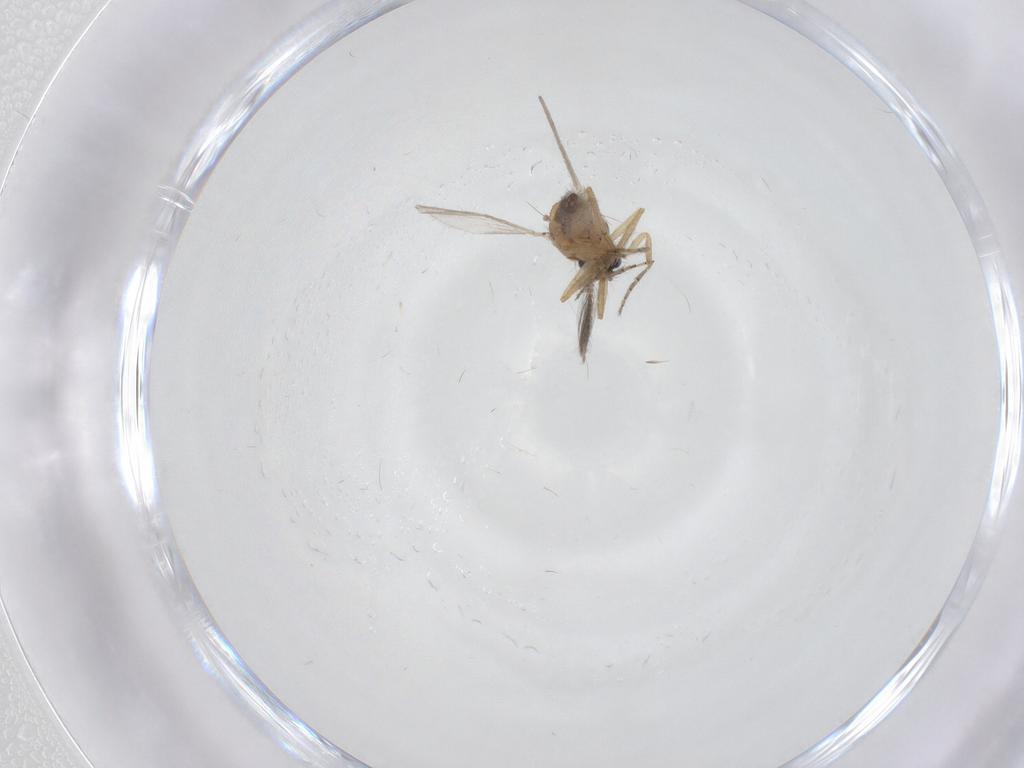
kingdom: Animalia
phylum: Arthropoda
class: Insecta
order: Diptera
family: Ceratopogonidae
